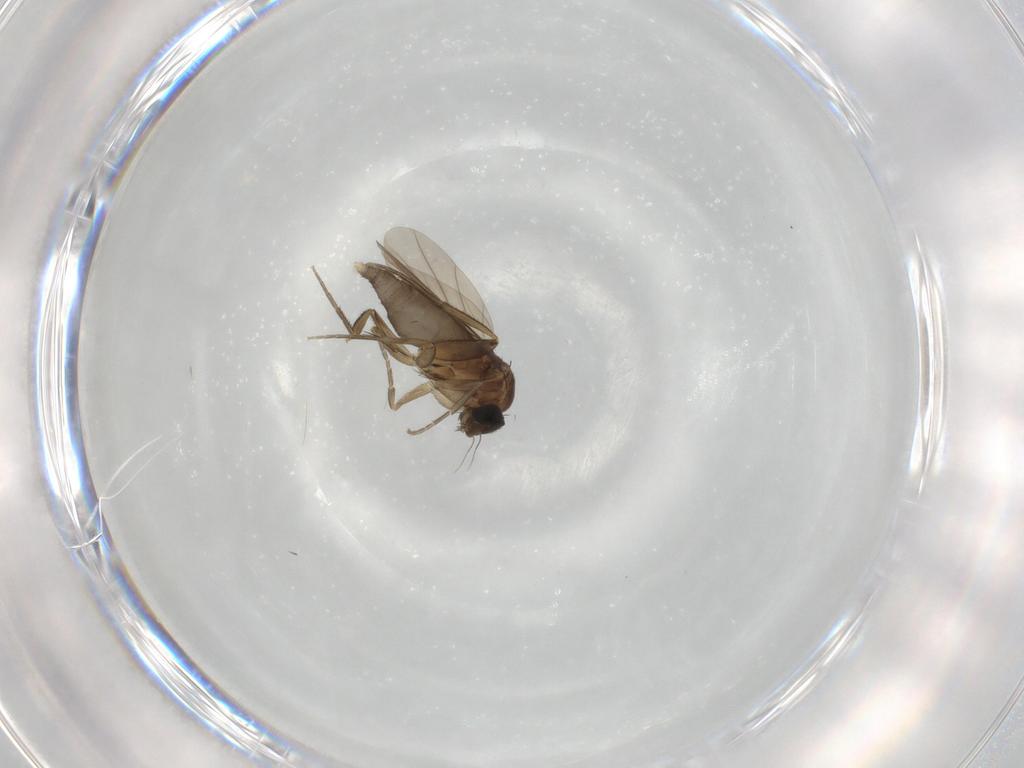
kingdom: Animalia
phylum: Arthropoda
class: Insecta
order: Diptera
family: Phoridae
